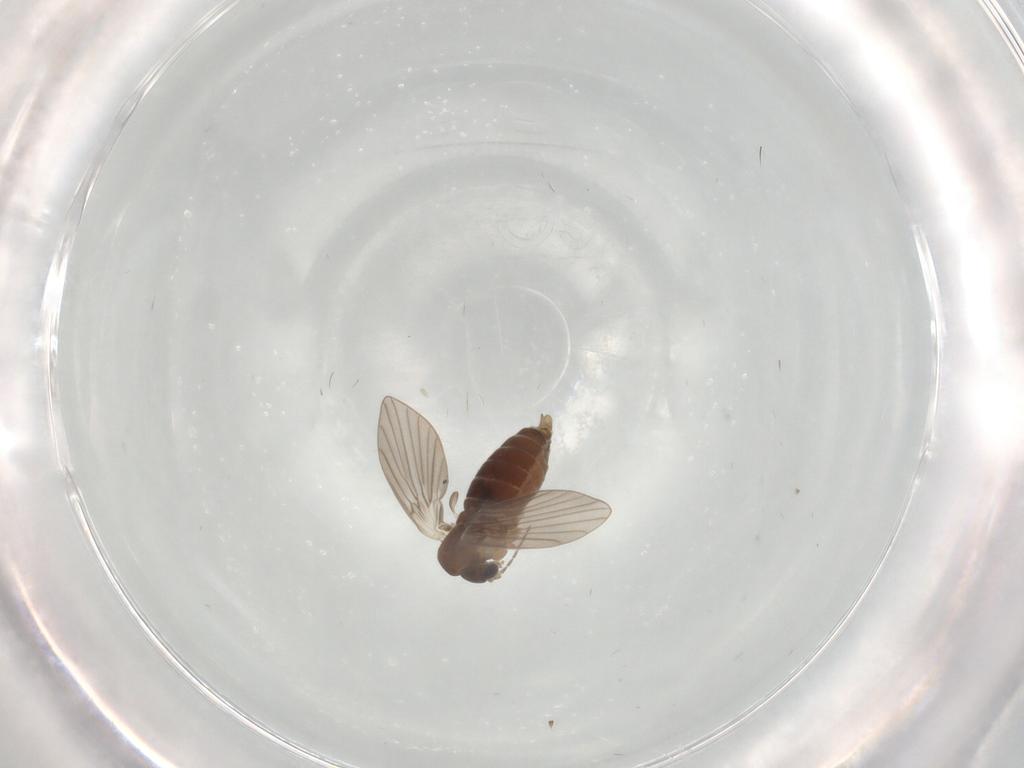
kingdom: Animalia
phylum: Arthropoda
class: Insecta
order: Diptera
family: Psychodidae
